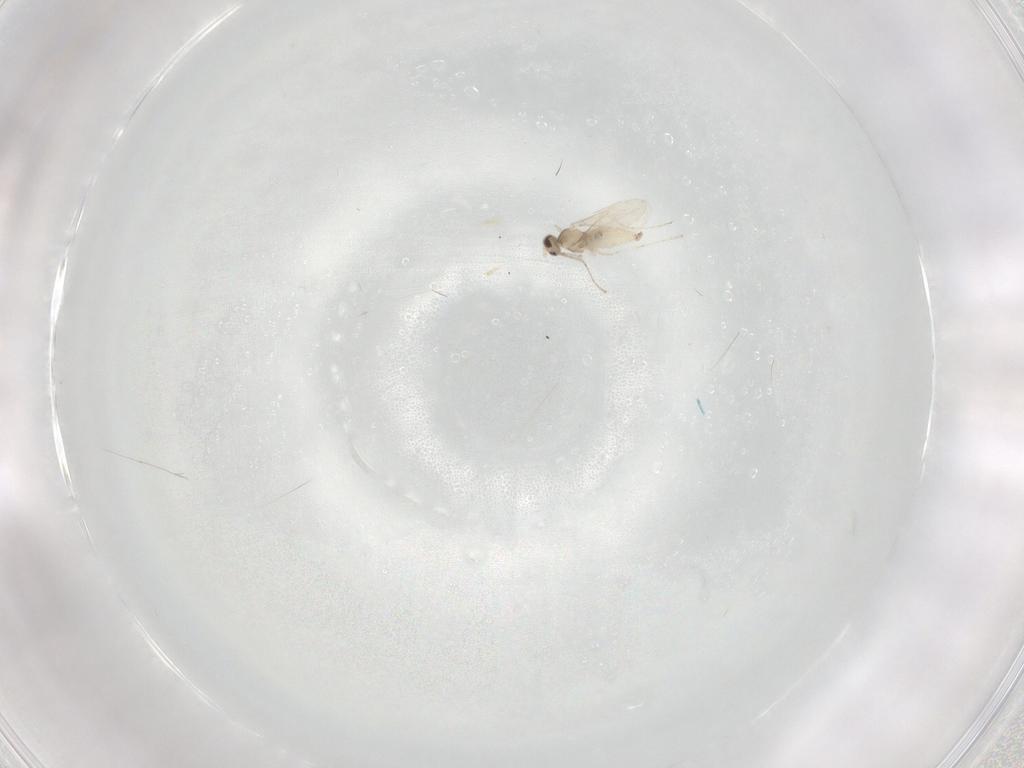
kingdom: Animalia
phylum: Arthropoda
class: Insecta
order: Diptera
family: Cecidomyiidae
